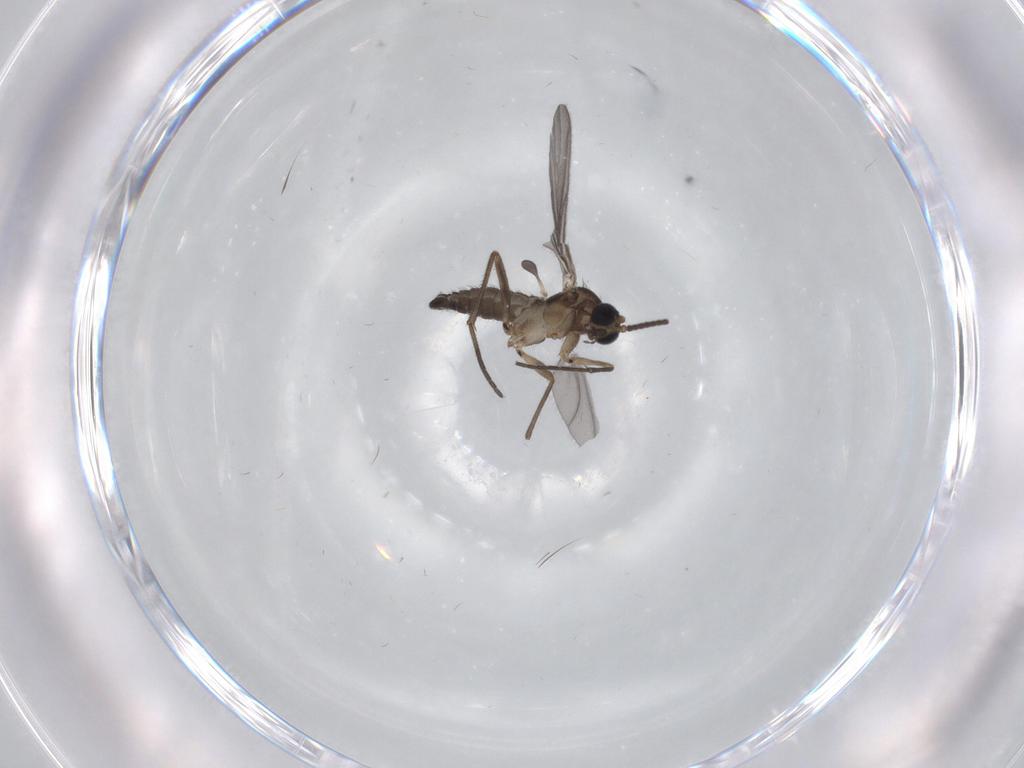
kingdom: Animalia
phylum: Arthropoda
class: Insecta
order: Diptera
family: Sciaridae
